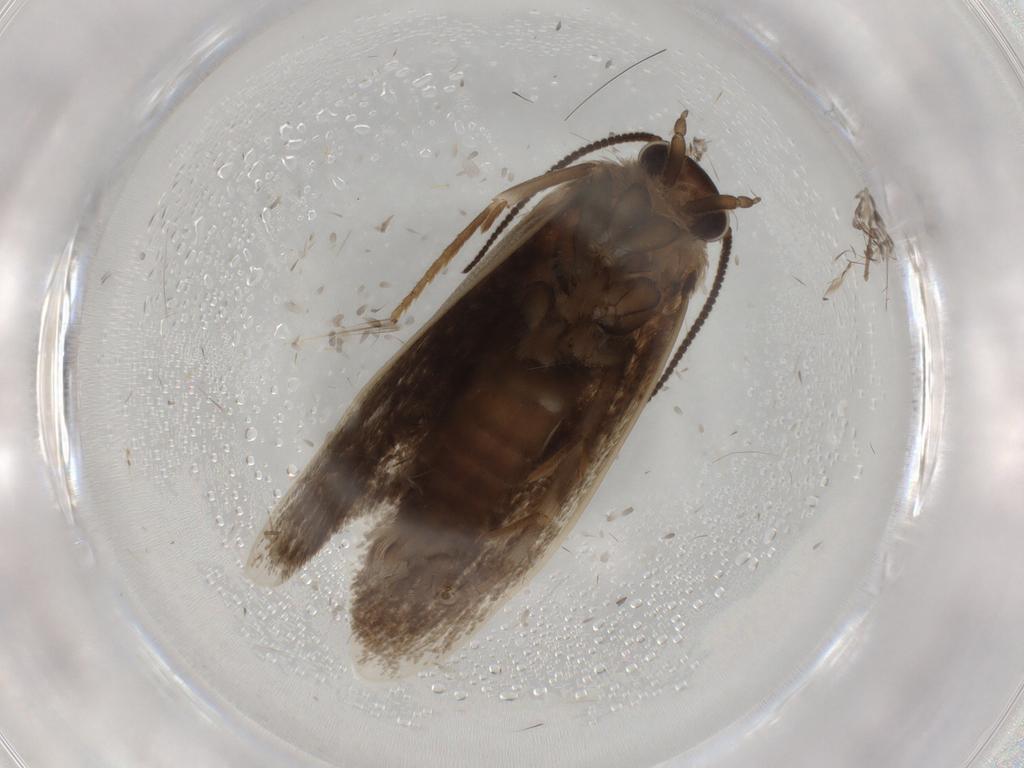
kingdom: Animalia
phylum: Arthropoda
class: Insecta
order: Lepidoptera
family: Tineidae
